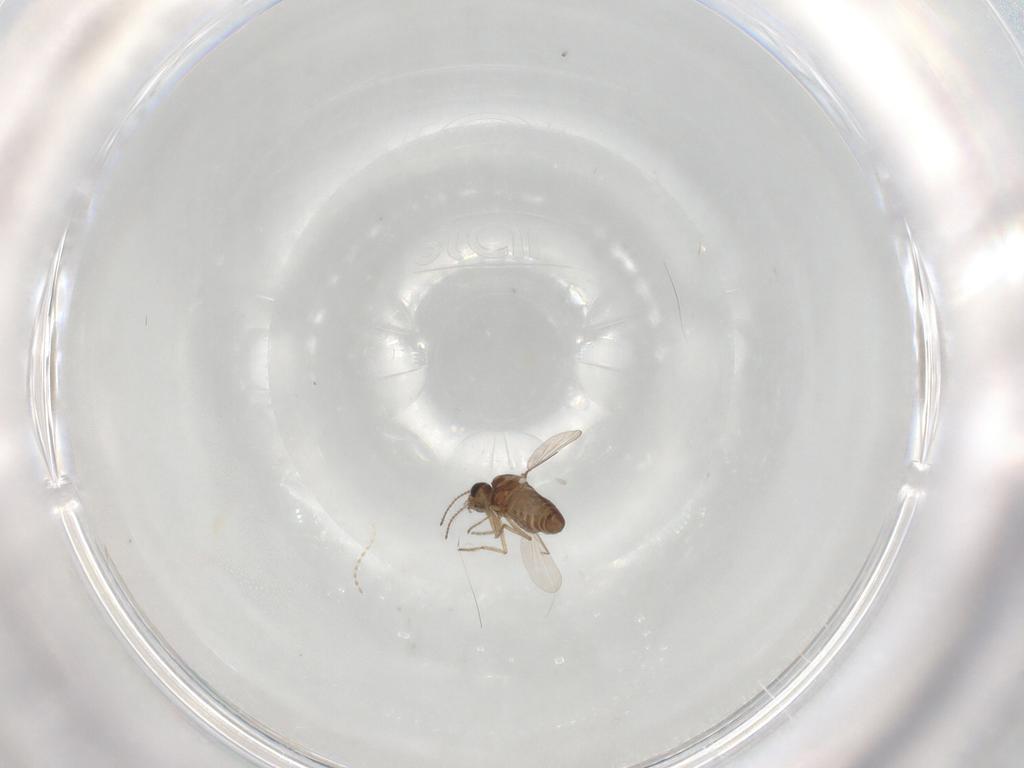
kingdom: Animalia
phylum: Arthropoda
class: Insecta
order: Diptera
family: Ceratopogonidae
